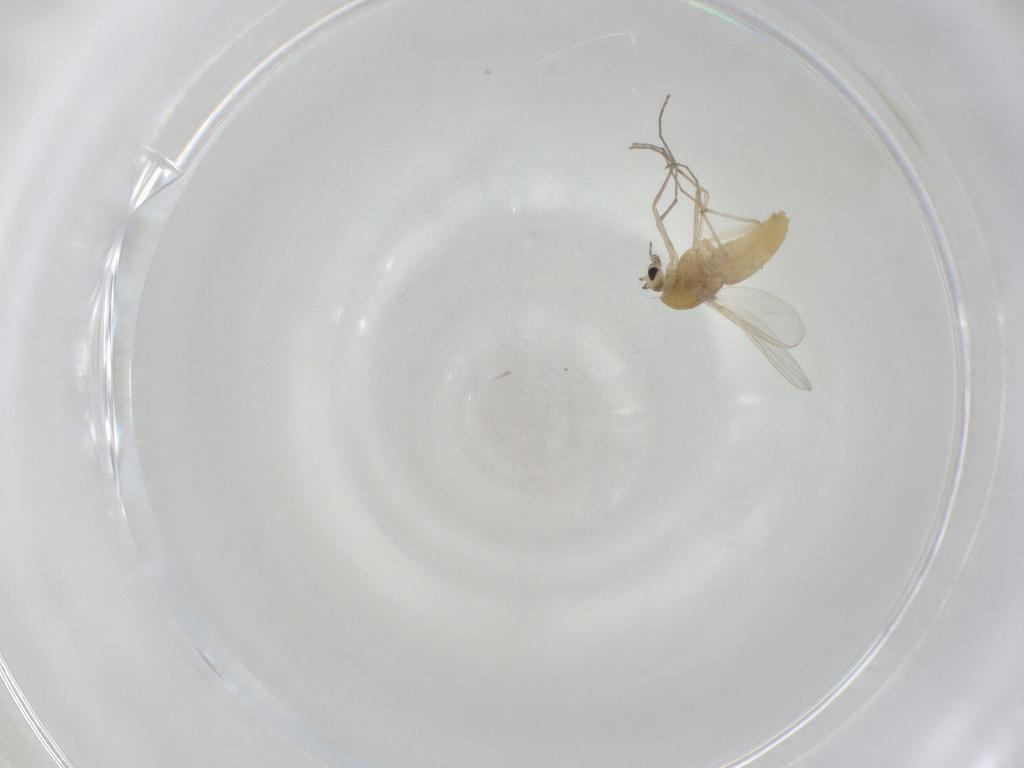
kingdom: Animalia
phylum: Arthropoda
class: Insecta
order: Diptera
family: Chironomidae
